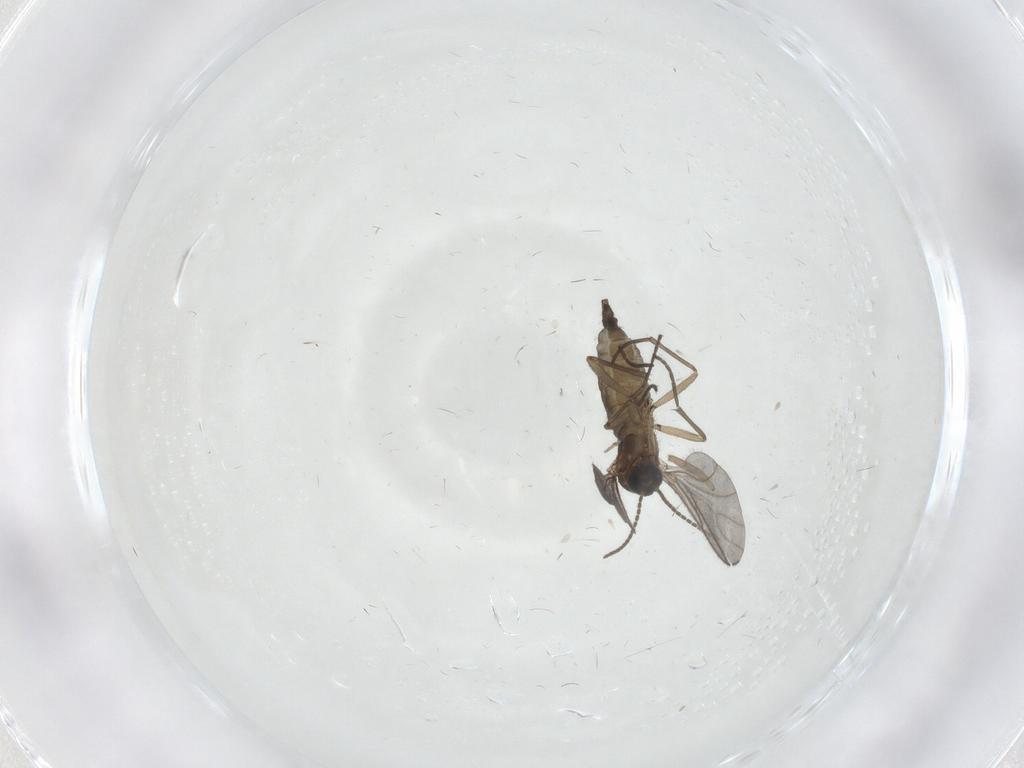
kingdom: Animalia
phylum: Arthropoda
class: Insecta
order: Diptera
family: Sciaridae
